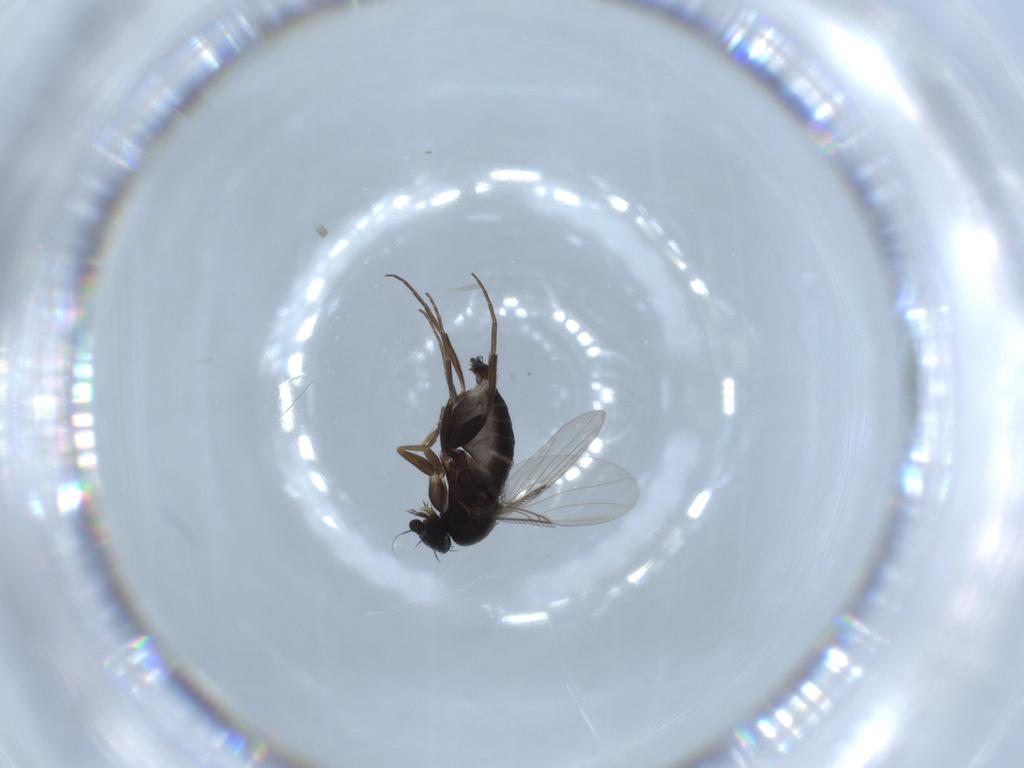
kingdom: Animalia
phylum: Arthropoda
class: Insecta
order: Diptera
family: Phoridae
